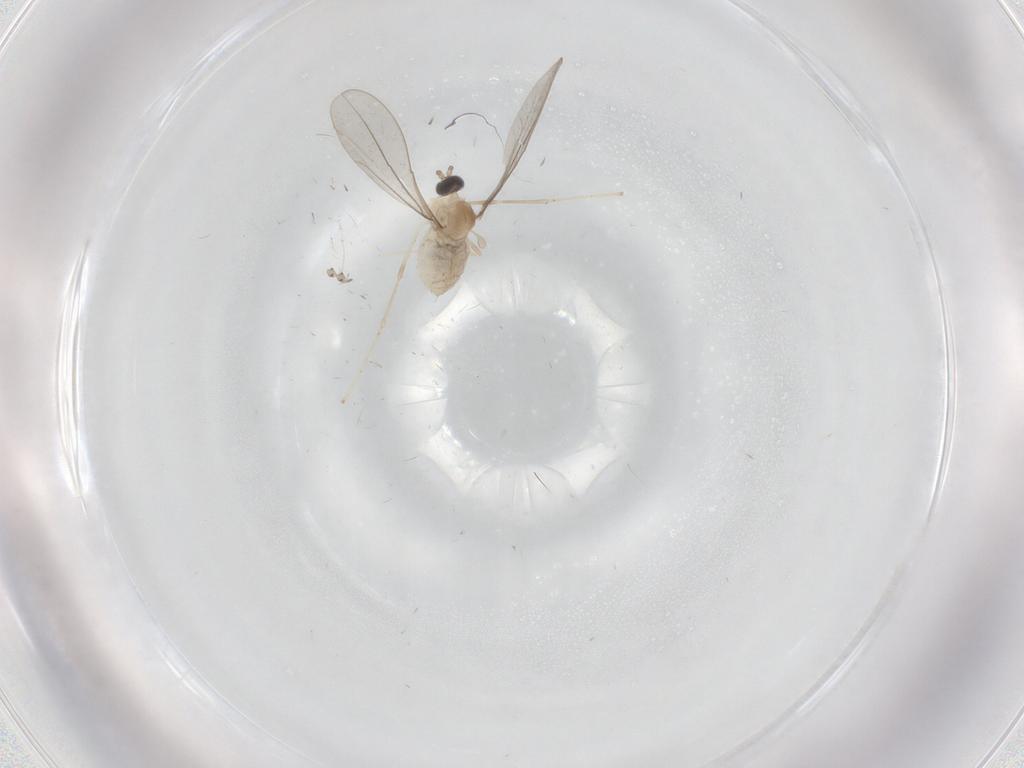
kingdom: Animalia
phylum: Arthropoda
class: Insecta
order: Diptera
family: Cecidomyiidae
